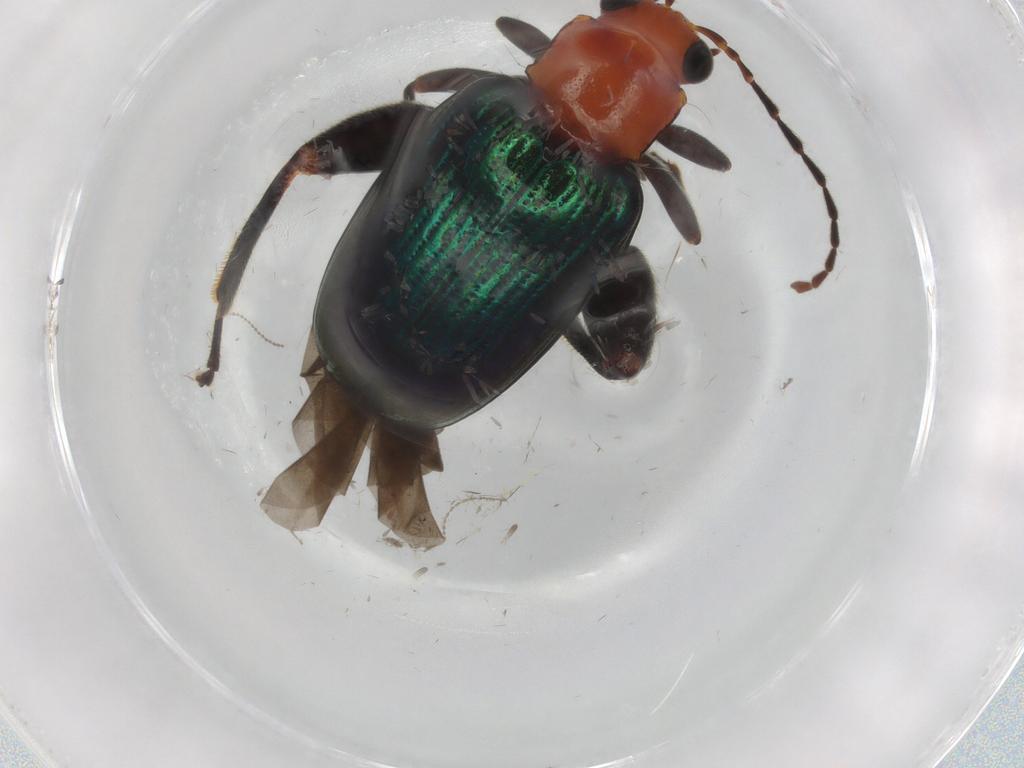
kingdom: Animalia
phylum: Arthropoda
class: Insecta
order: Coleoptera
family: Chrysomelidae
